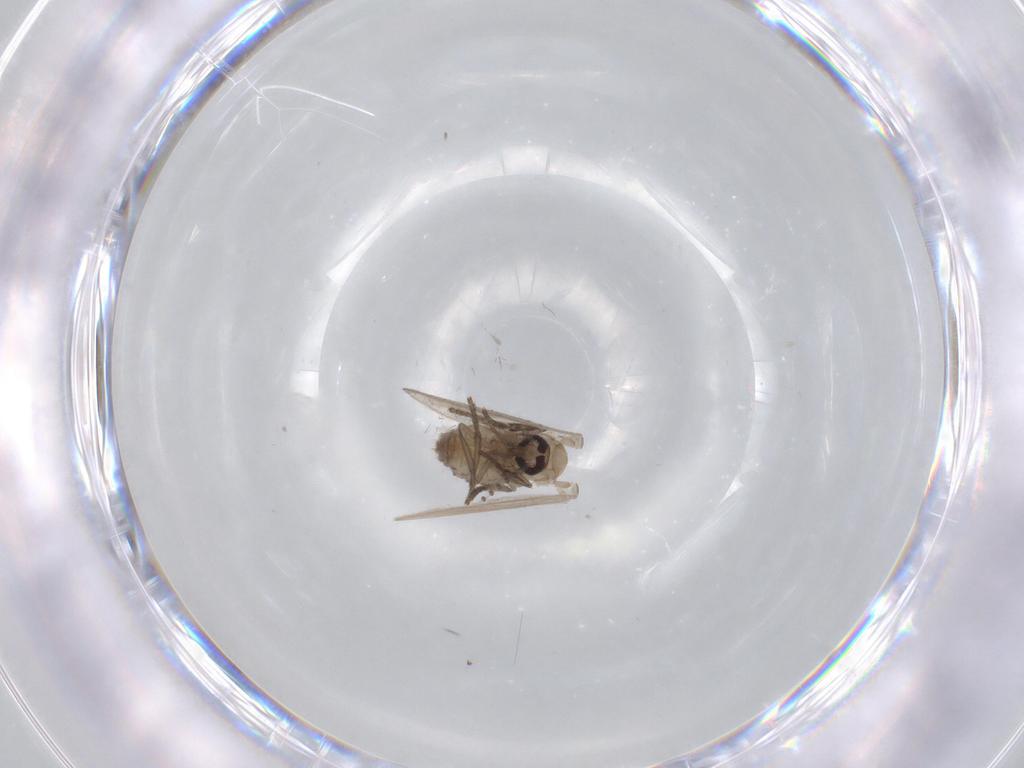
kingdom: Animalia
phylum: Arthropoda
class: Insecta
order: Diptera
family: Psychodidae
